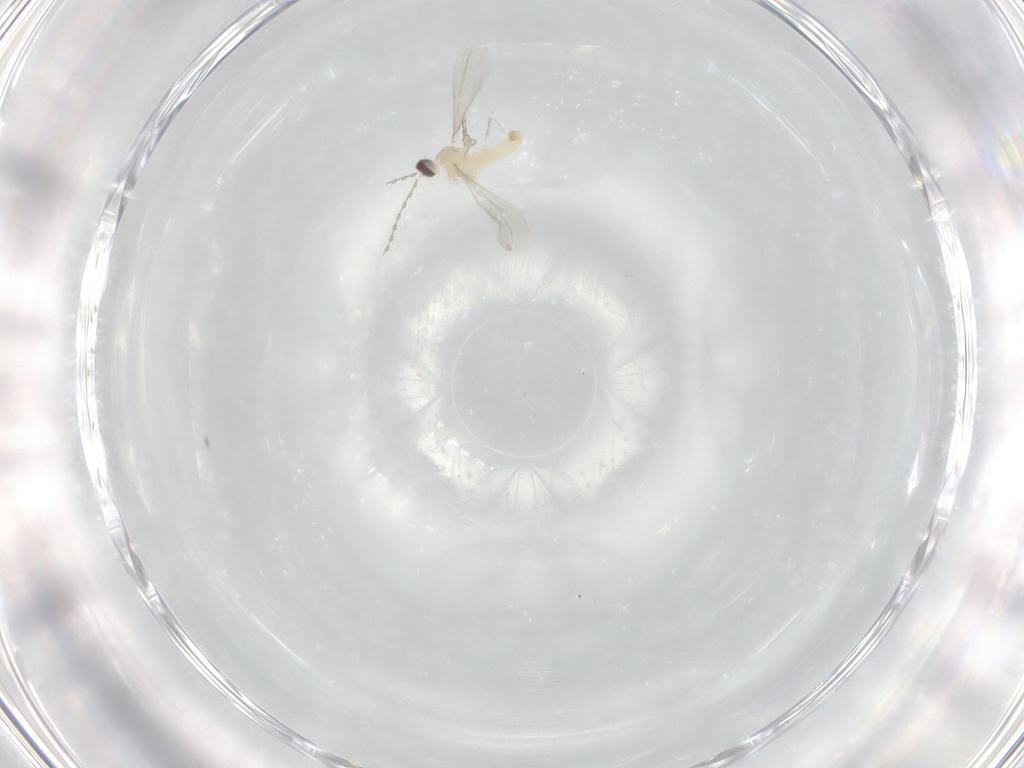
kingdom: Animalia
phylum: Arthropoda
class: Insecta
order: Diptera
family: Cecidomyiidae
